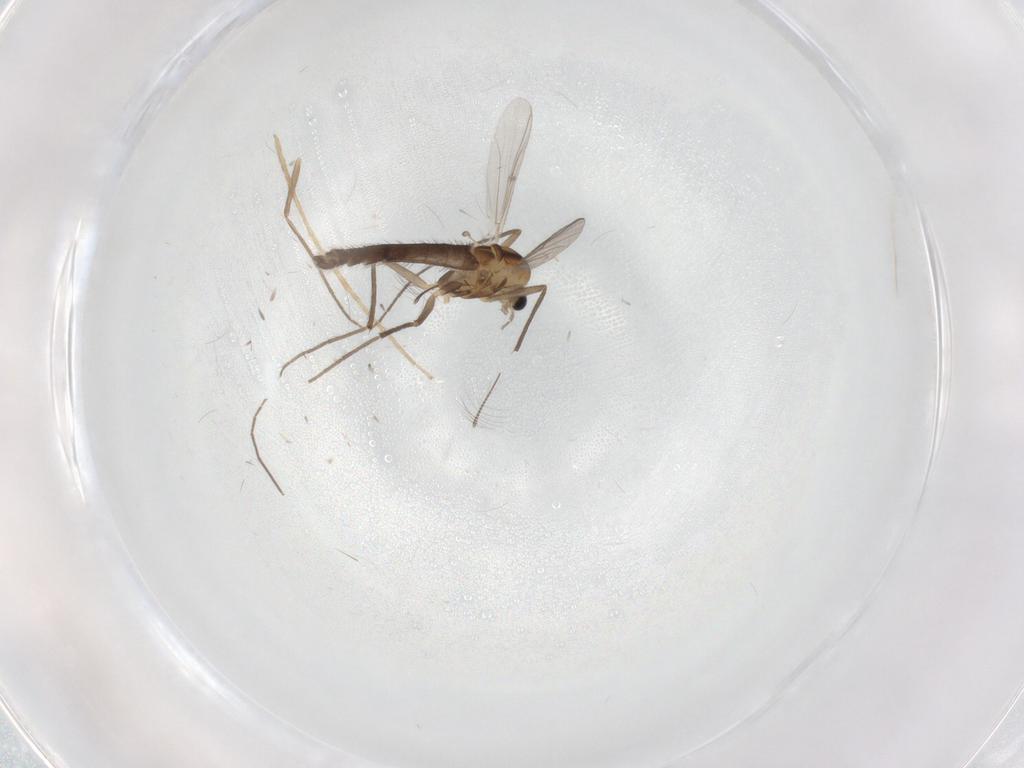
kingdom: Animalia
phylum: Arthropoda
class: Insecta
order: Diptera
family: Chironomidae
